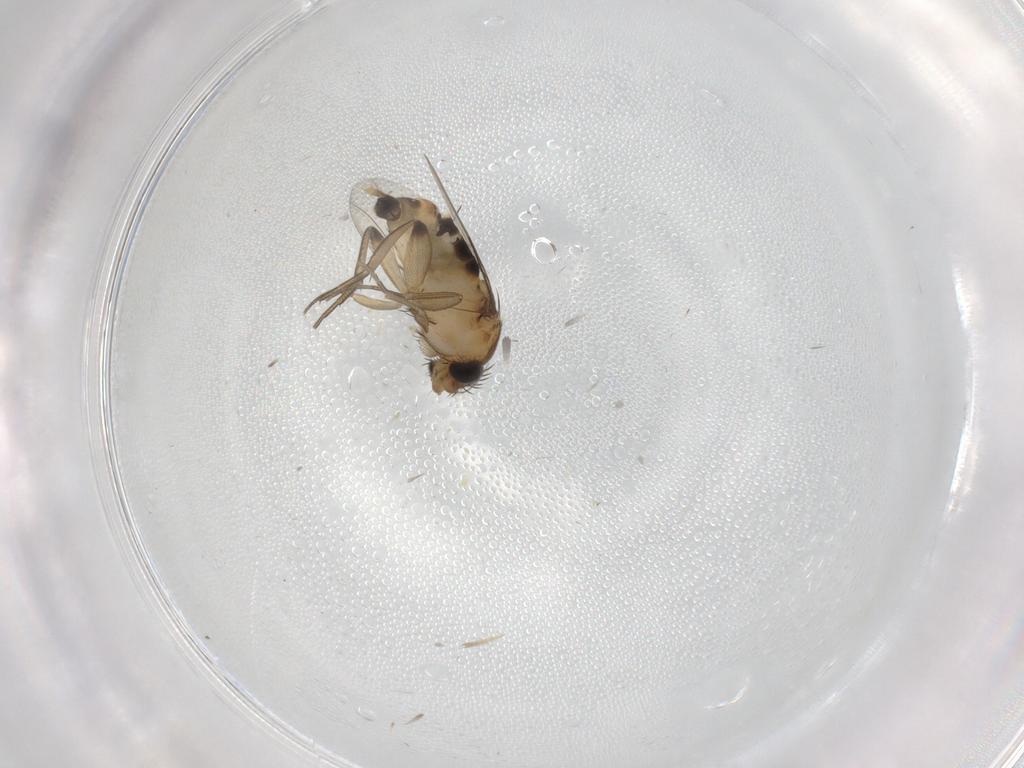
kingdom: Animalia
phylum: Arthropoda
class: Insecta
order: Diptera
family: Phoridae
